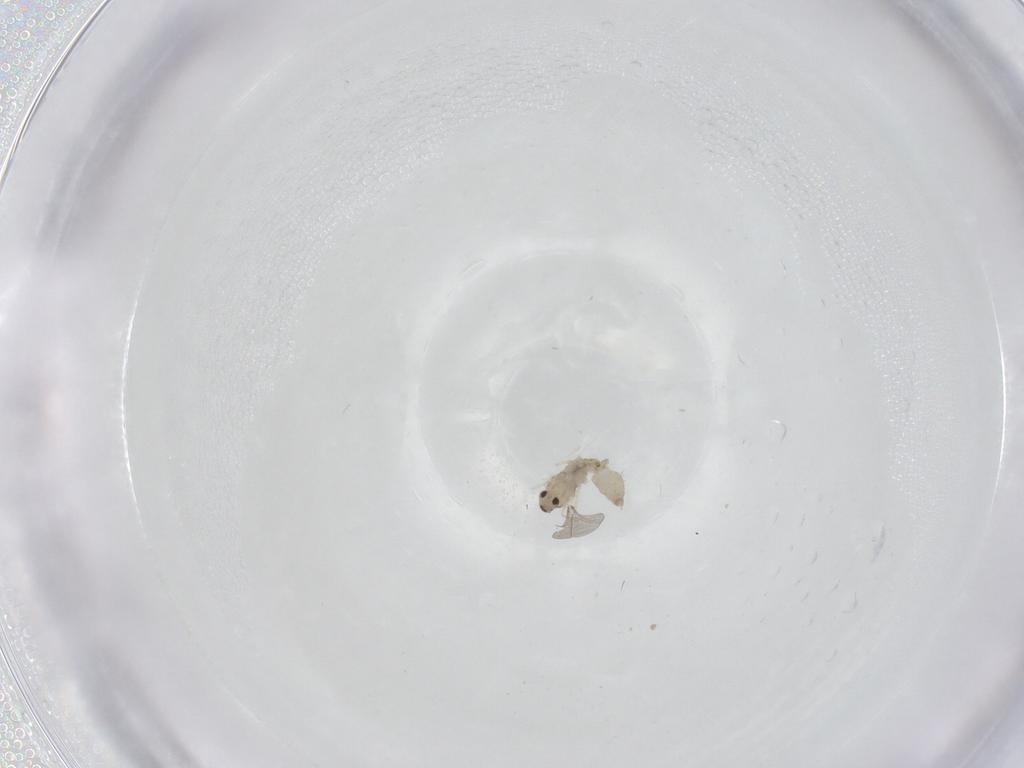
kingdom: Animalia
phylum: Arthropoda
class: Insecta
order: Diptera
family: Cecidomyiidae
